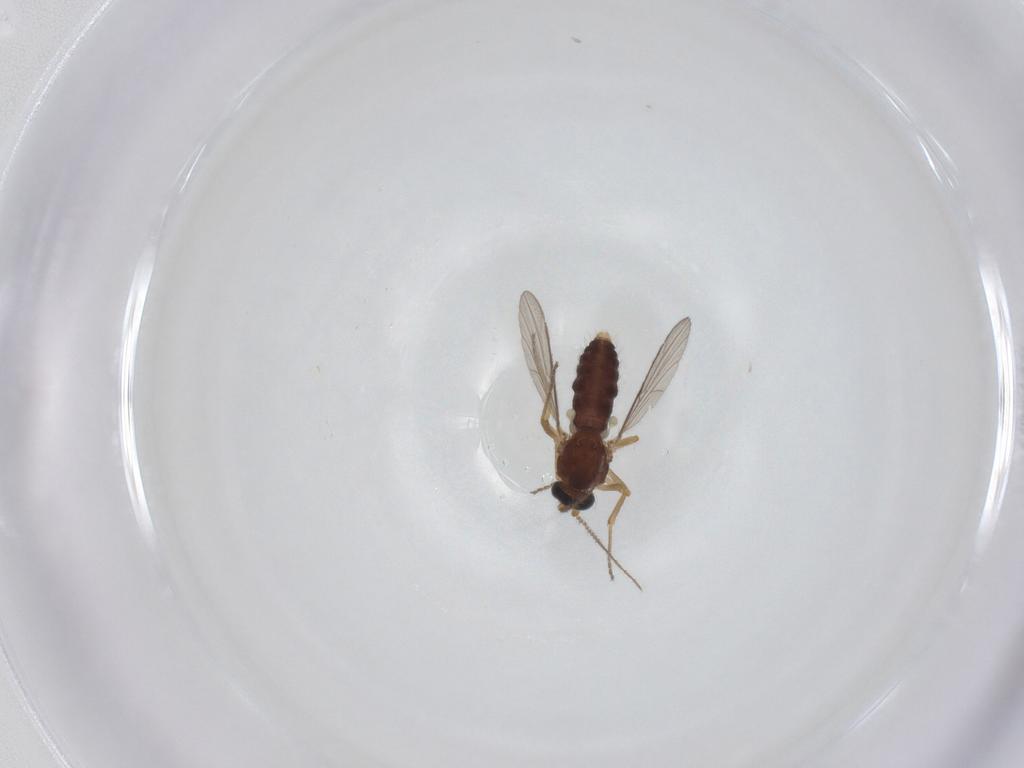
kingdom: Animalia
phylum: Arthropoda
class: Insecta
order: Diptera
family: Ceratopogonidae
